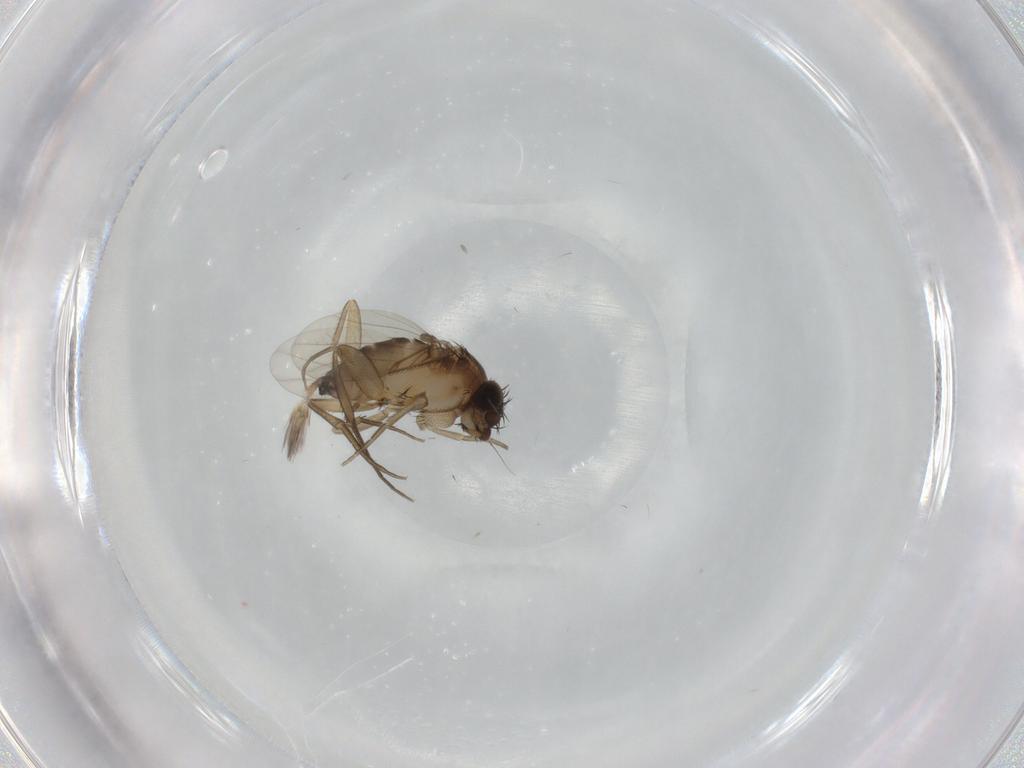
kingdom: Animalia
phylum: Arthropoda
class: Insecta
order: Diptera
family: Phoridae
